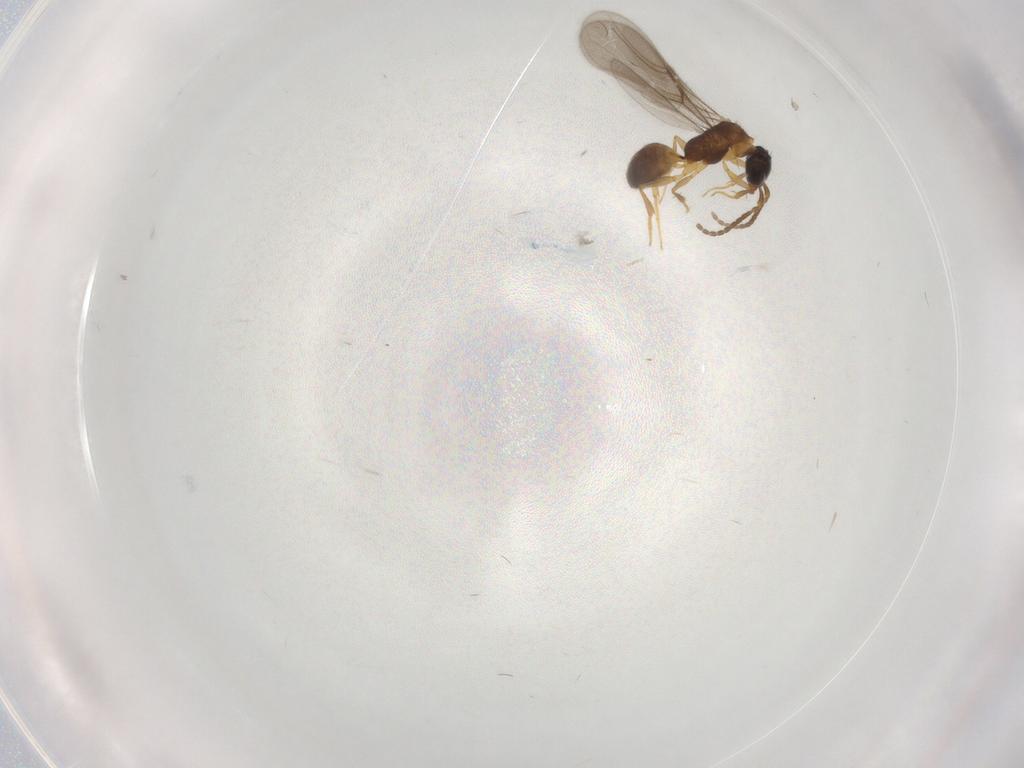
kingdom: Animalia
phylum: Arthropoda
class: Insecta
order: Hymenoptera
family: Bethylidae
